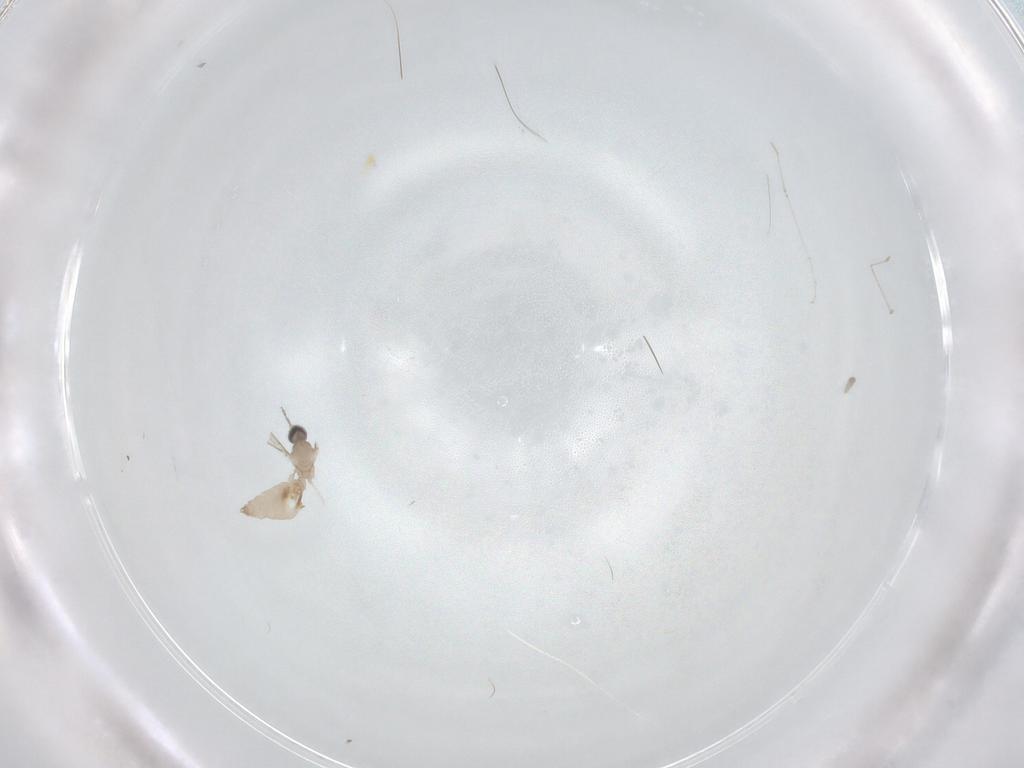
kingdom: Animalia
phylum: Arthropoda
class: Insecta
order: Diptera
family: Cecidomyiidae
